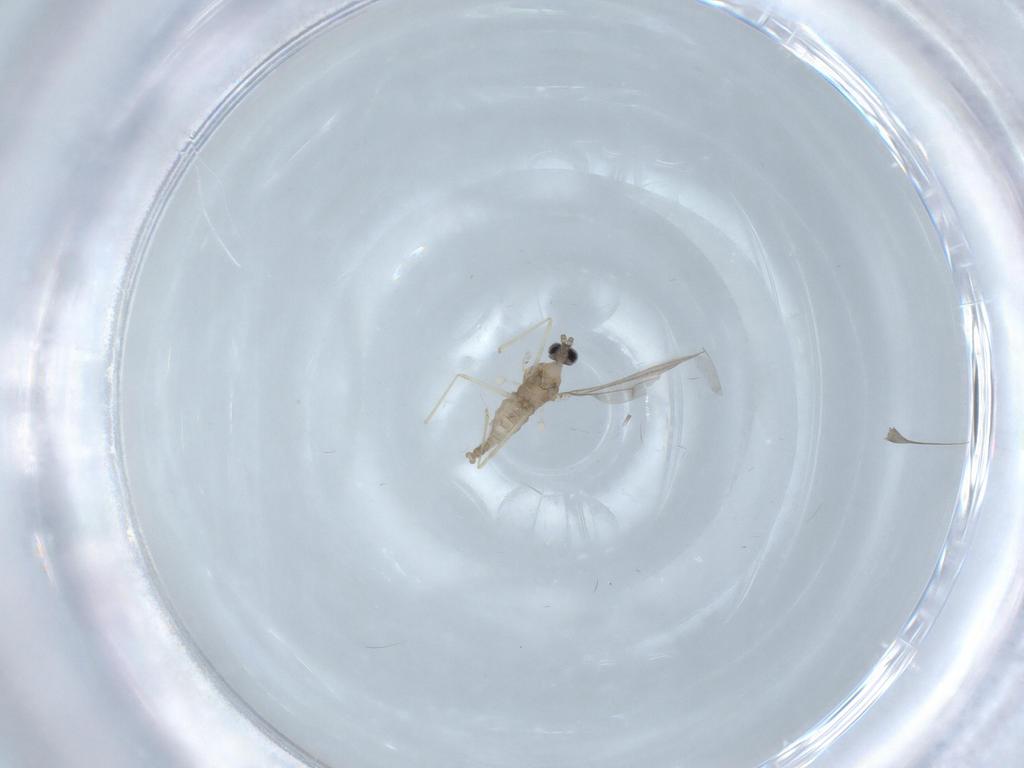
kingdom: Animalia
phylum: Arthropoda
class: Insecta
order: Diptera
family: Cecidomyiidae
